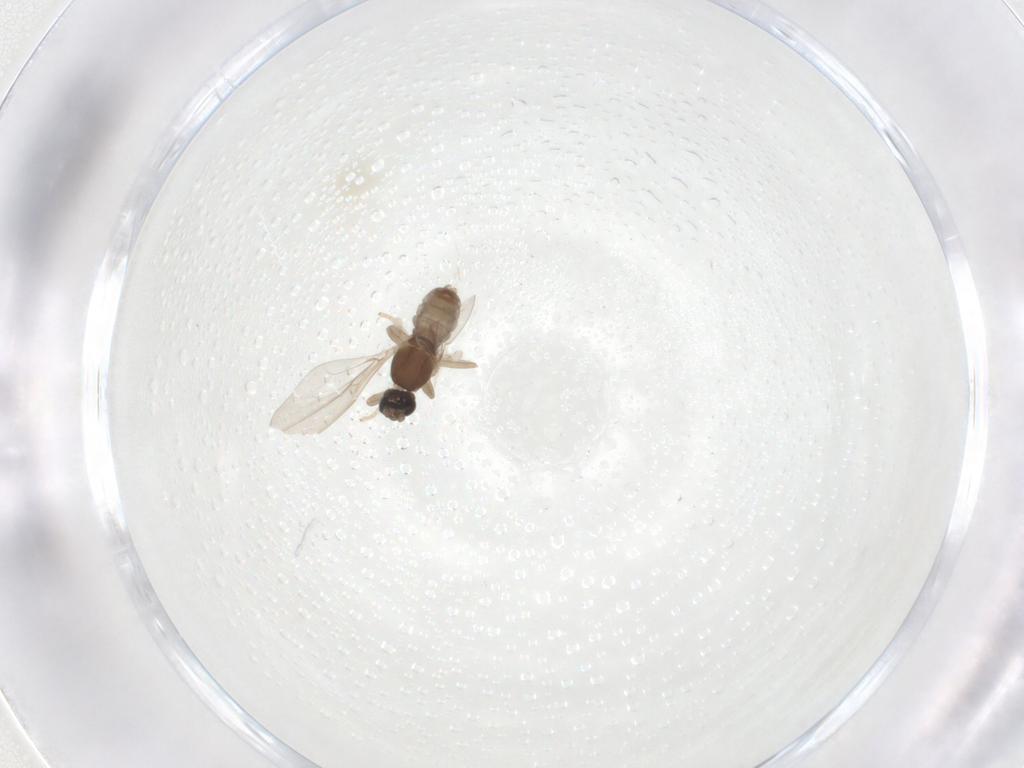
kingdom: Animalia
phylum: Arthropoda
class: Insecta
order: Diptera
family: Cecidomyiidae
